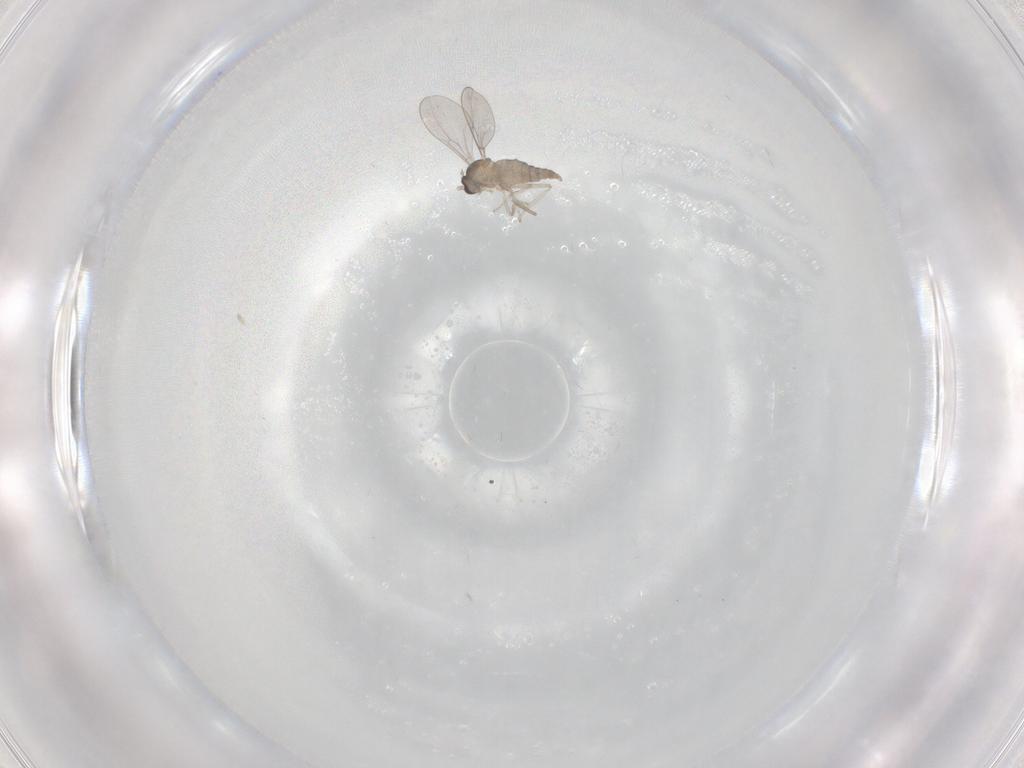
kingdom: Animalia
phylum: Arthropoda
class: Insecta
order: Diptera
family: Cecidomyiidae
